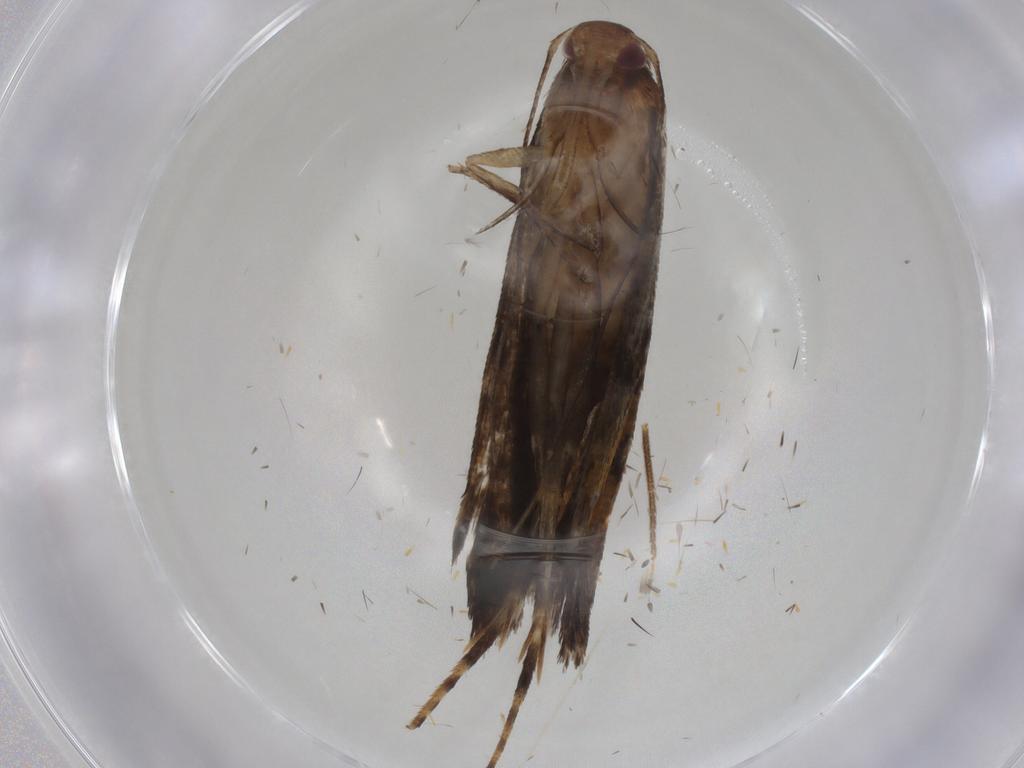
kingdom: Animalia
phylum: Arthropoda
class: Insecta
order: Lepidoptera
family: Gelechiidae
